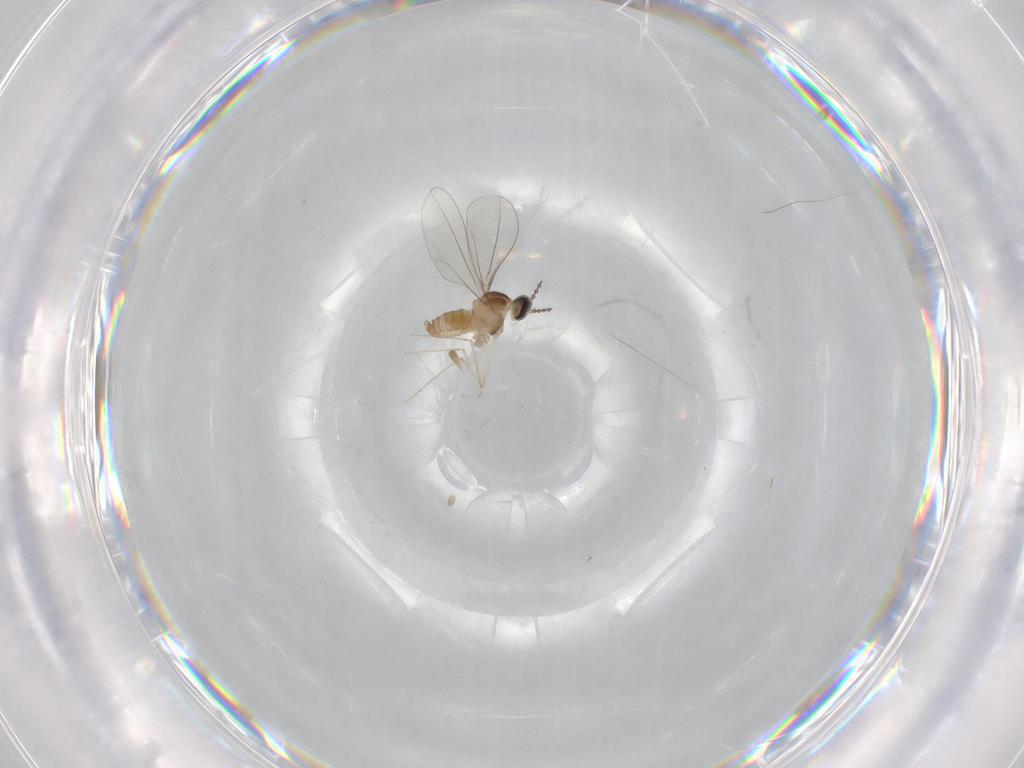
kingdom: Animalia
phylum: Arthropoda
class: Insecta
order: Diptera
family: Cecidomyiidae
